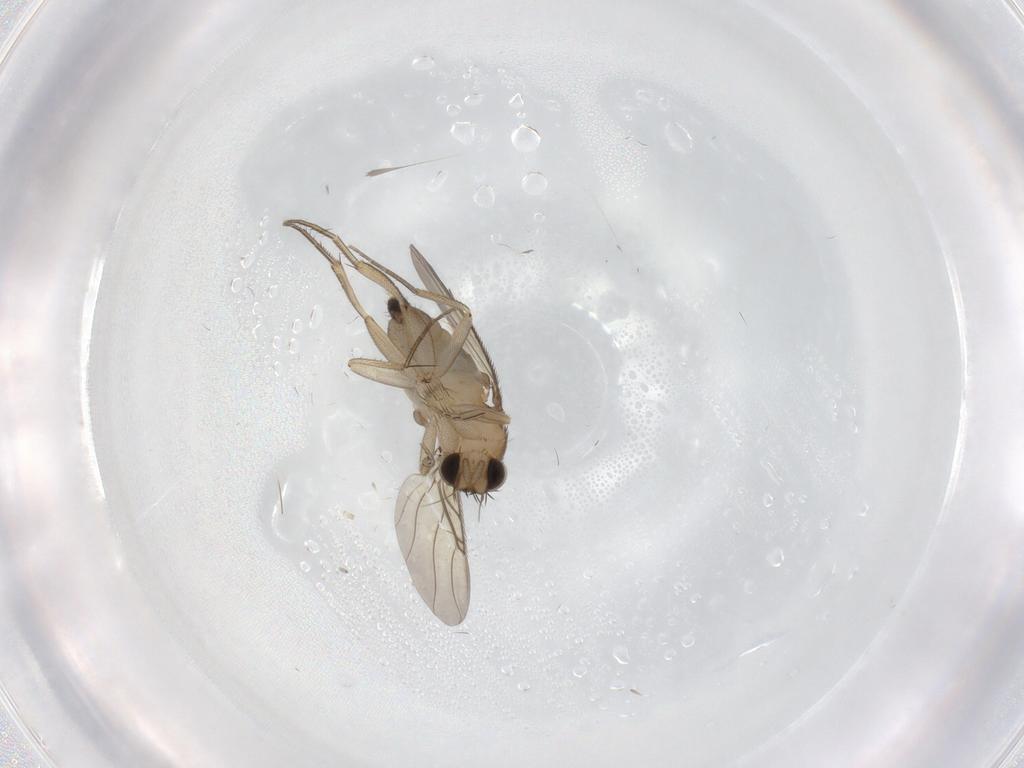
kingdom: Animalia
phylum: Arthropoda
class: Insecta
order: Diptera
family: Phoridae
